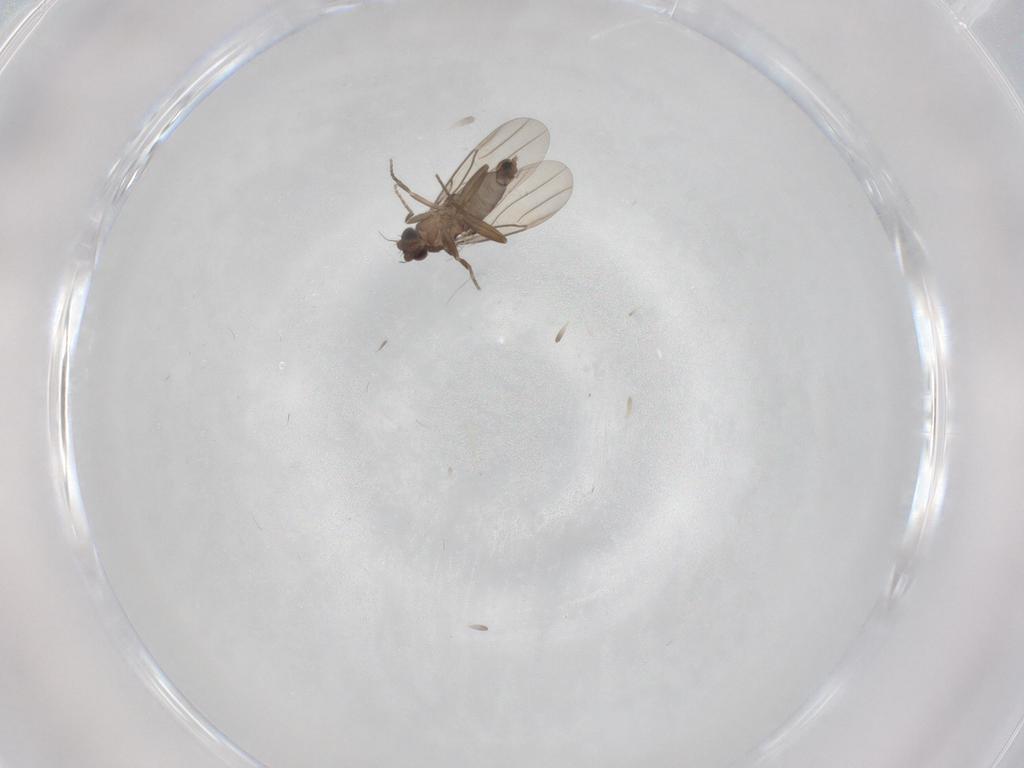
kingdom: Animalia
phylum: Arthropoda
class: Insecta
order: Diptera
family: Phoridae
